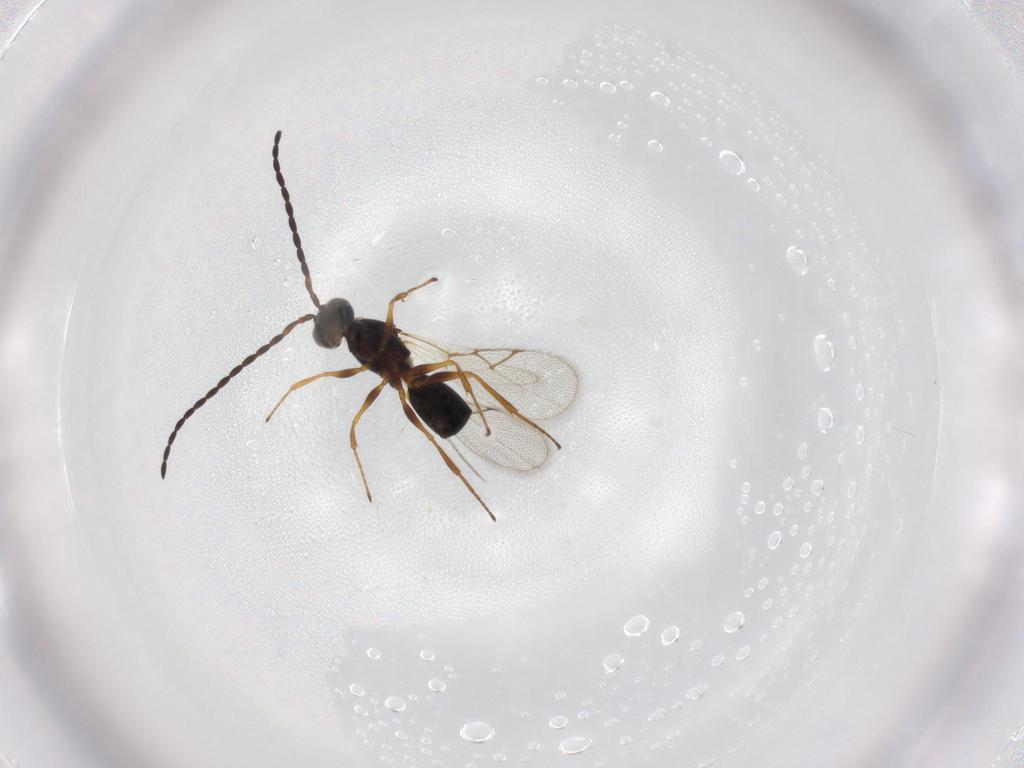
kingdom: Animalia
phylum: Arthropoda
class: Insecta
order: Hymenoptera
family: Figitidae
